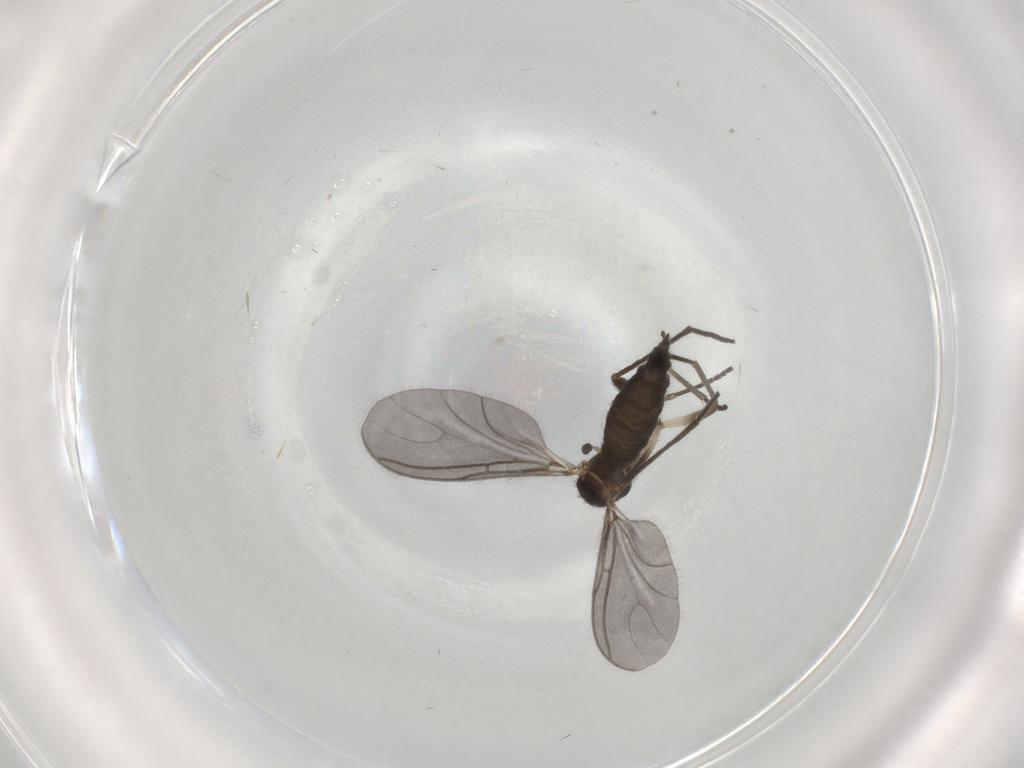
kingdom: Animalia
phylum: Arthropoda
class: Insecta
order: Diptera
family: Sciaridae
